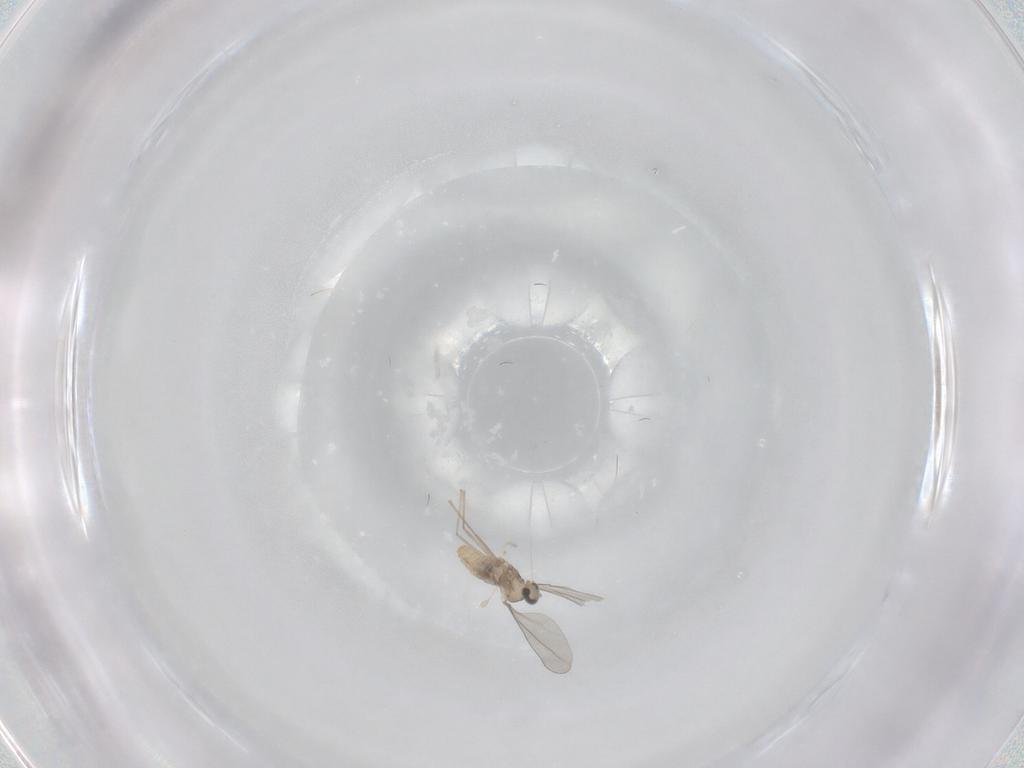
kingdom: Animalia
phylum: Arthropoda
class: Insecta
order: Diptera
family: Cecidomyiidae
